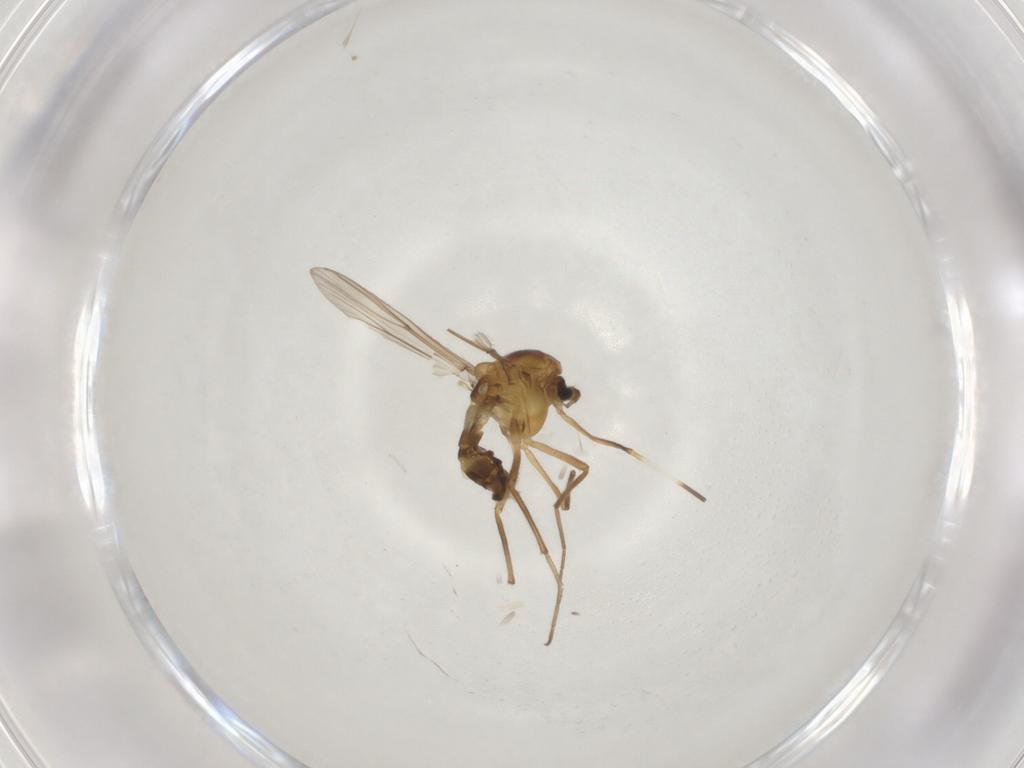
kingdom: Animalia
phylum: Arthropoda
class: Insecta
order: Diptera
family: Chironomidae
